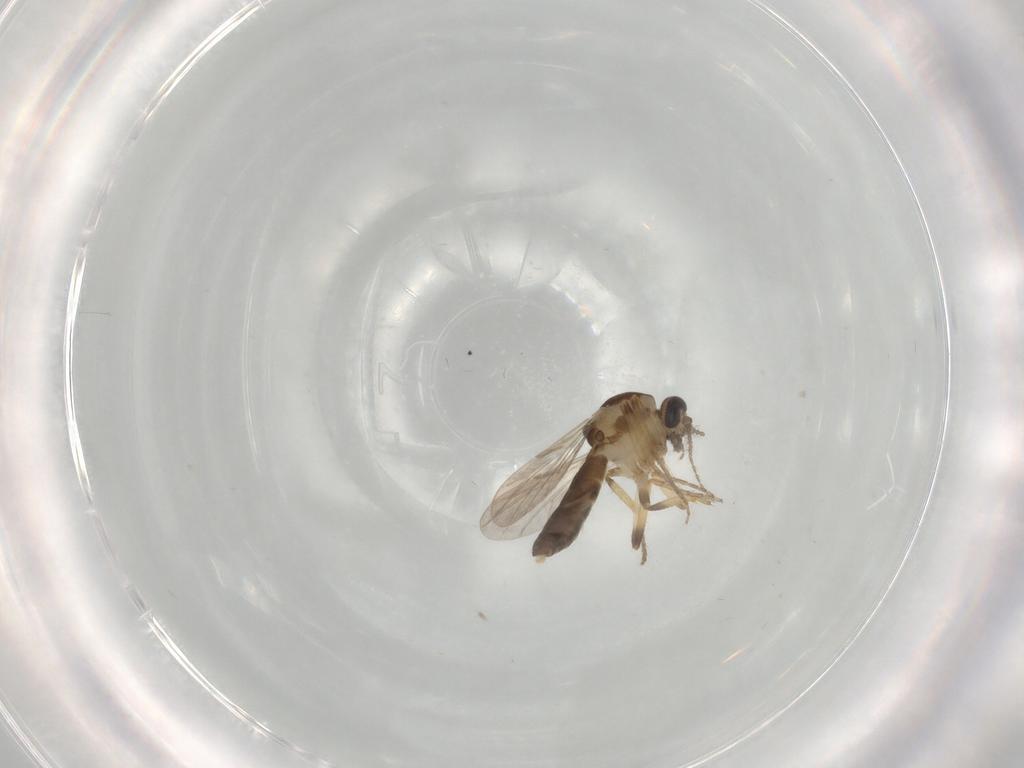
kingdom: Animalia
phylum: Arthropoda
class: Insecta
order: Diptera
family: Ceratopogonidae
